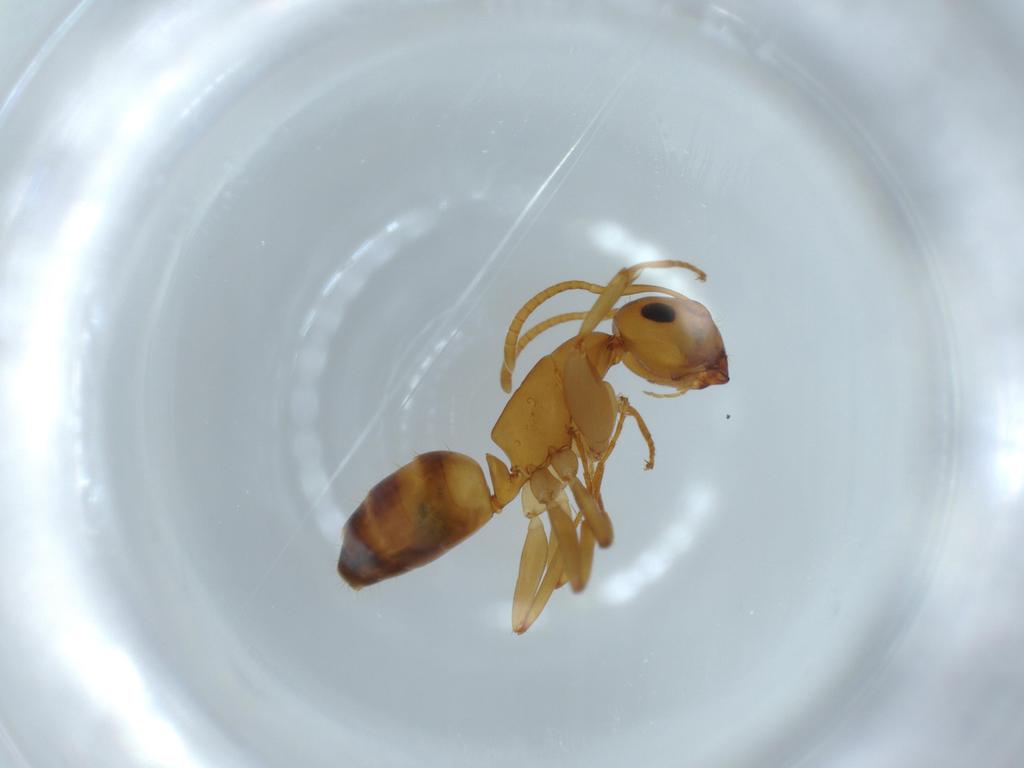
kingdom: Animalia
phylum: Arthropoda
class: Insecta
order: Hymenoptera
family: Formicidae
